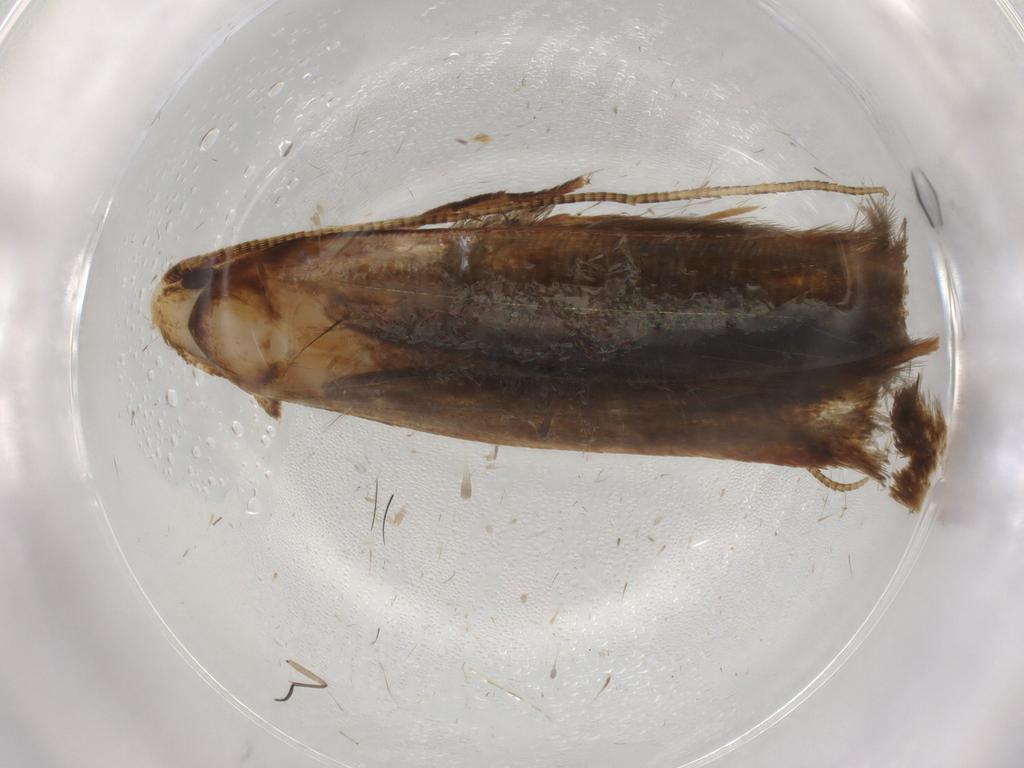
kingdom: Animalia
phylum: Arthropoda
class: Insecta
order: Lepidoptera
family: Tineidae
